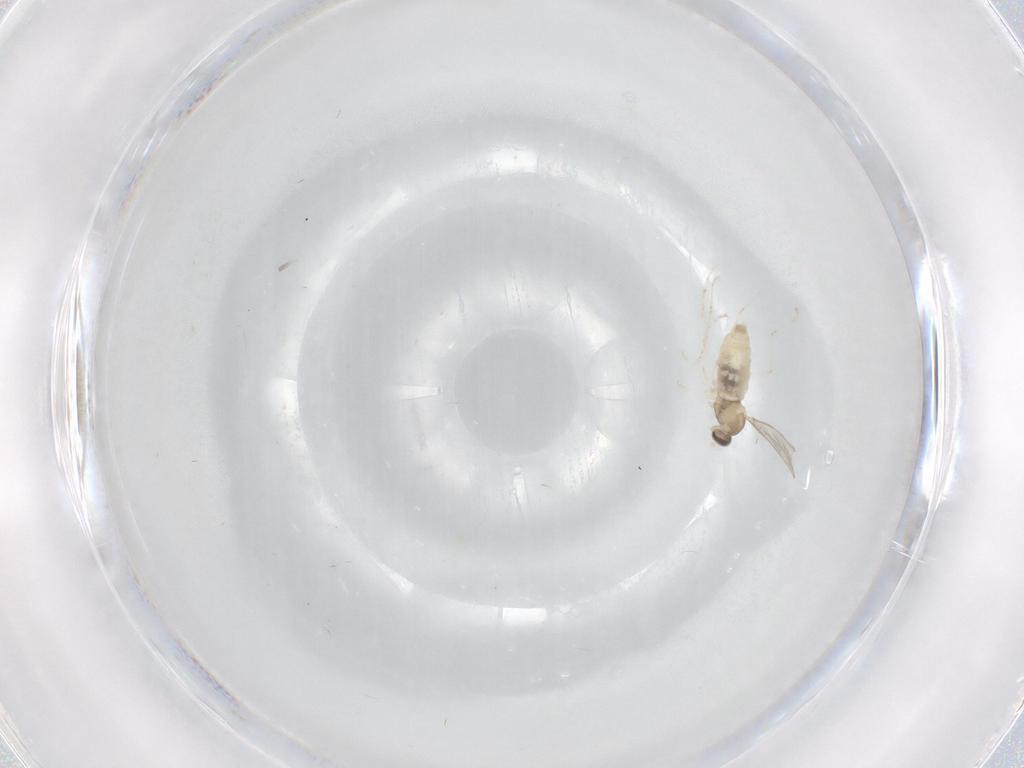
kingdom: Animalia
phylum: Arthropoda
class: Insecta
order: Diptera
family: Cecidomyiidae
